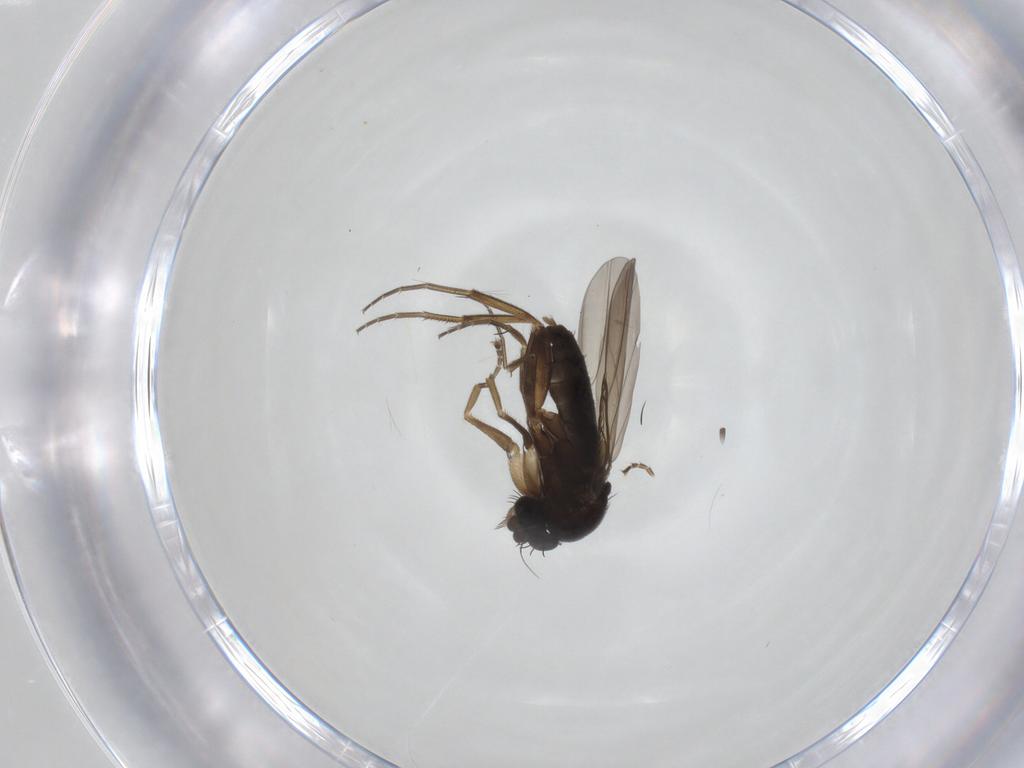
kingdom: Animalia
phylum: Arthropoda
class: Insecta
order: Diptera
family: Phoridae
